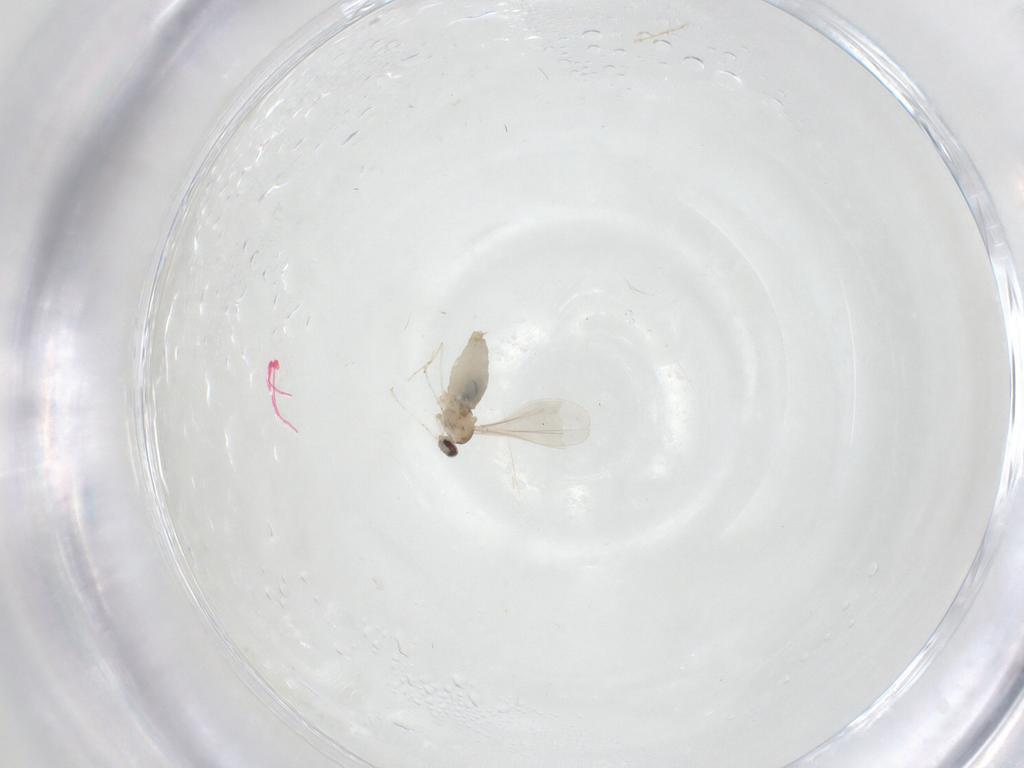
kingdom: Animalia
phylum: Arthropoda
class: Insecta
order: Diptera
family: Cecidomyiidae
